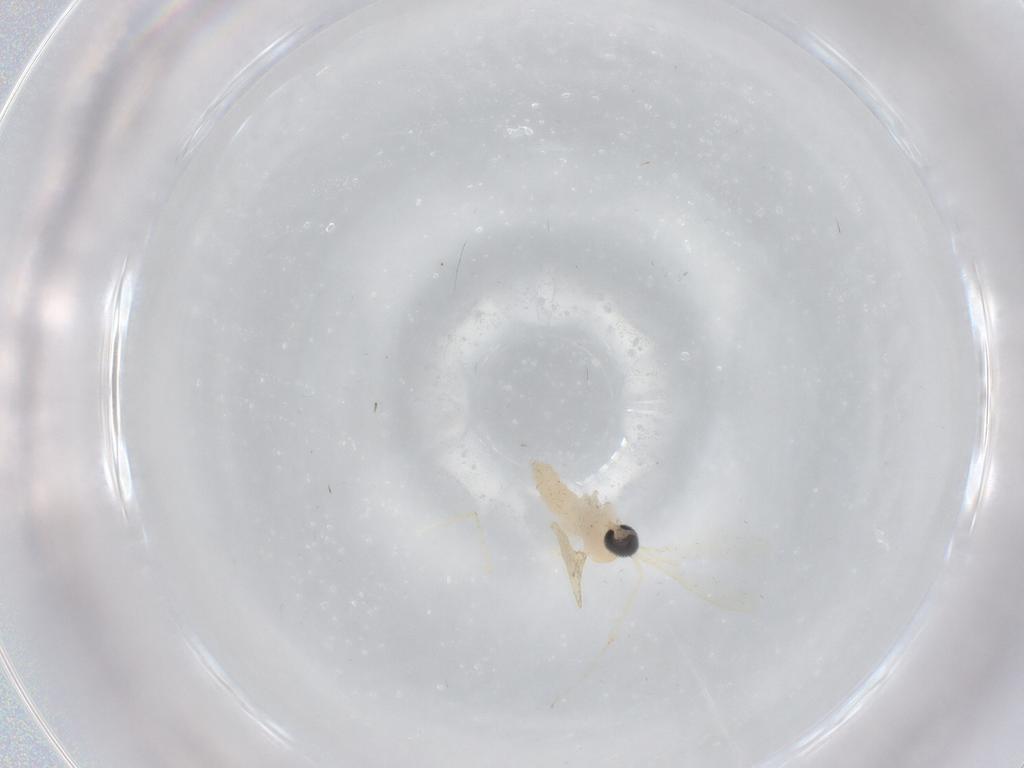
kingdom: Animalia
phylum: Arthropoda
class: Insecta
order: Diptera
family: Cecidomyiidae
